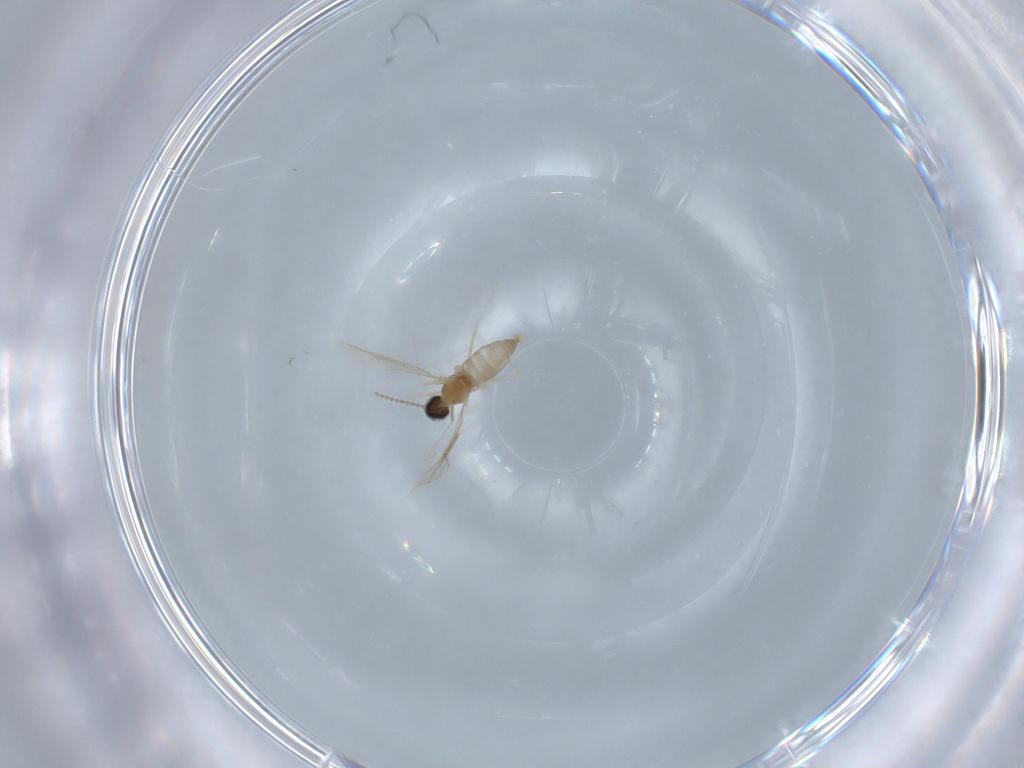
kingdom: Animalia
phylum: Arthropoda
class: Insecta
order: Diptera
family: Cecidomyiidae
